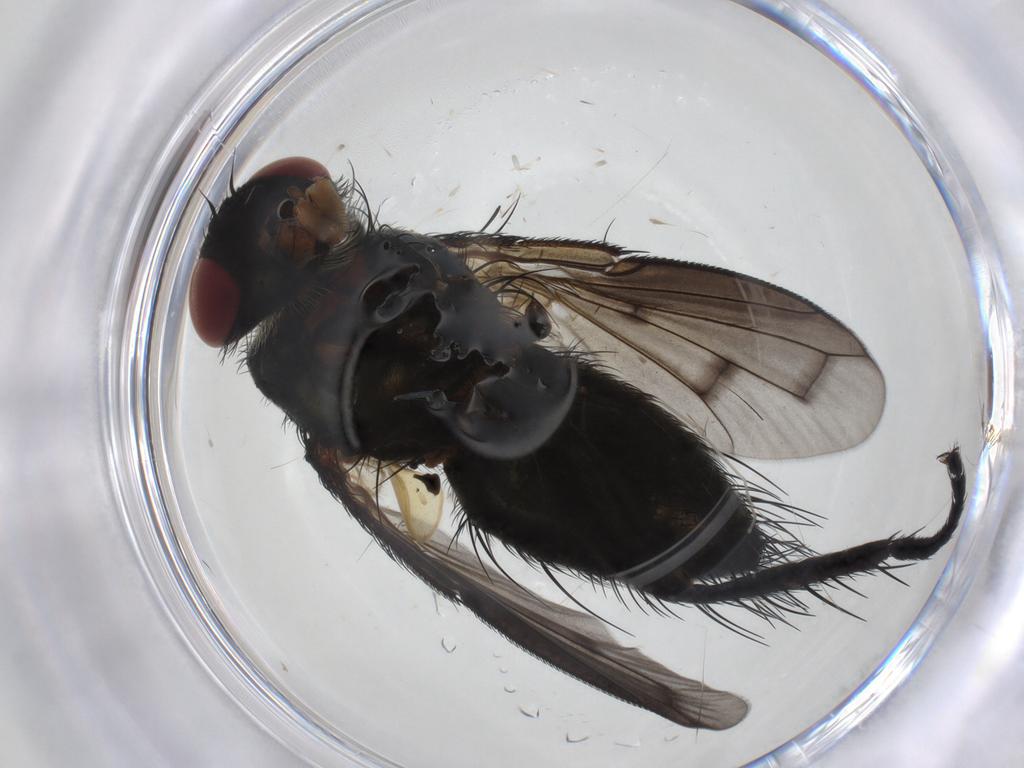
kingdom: Animalia
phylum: Arthropoda
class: Insecta
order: Diptera
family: Tachinidae
